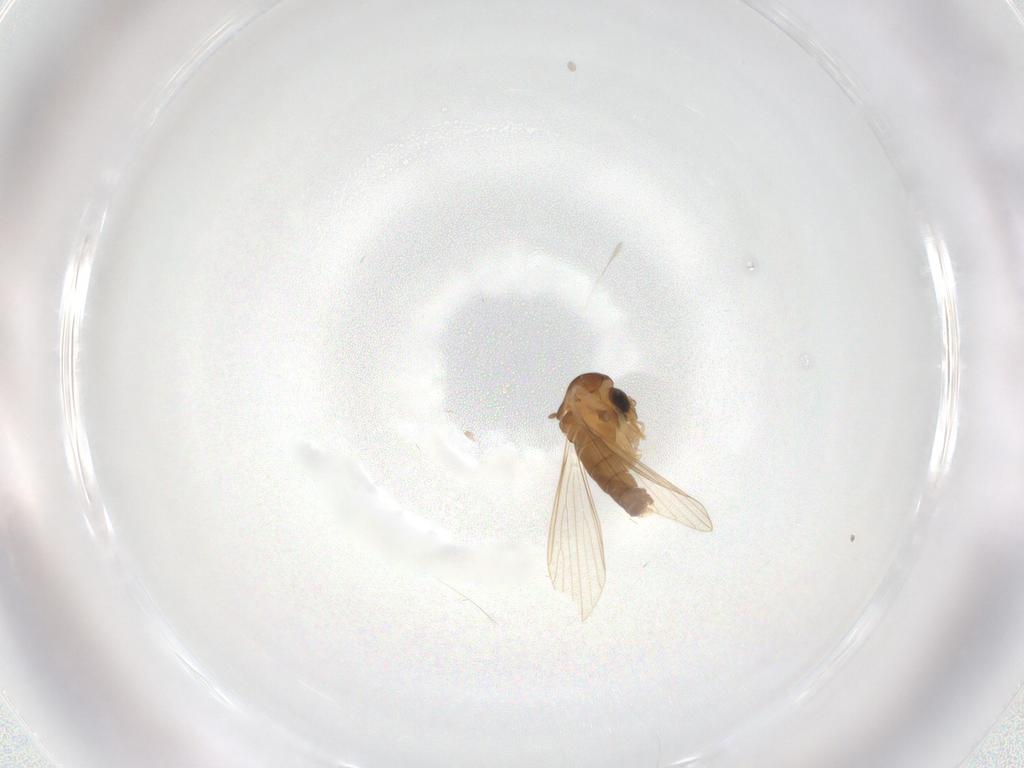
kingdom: Animalia
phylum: Arthropoda
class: Insecta
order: Diptera
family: Psychodidae
